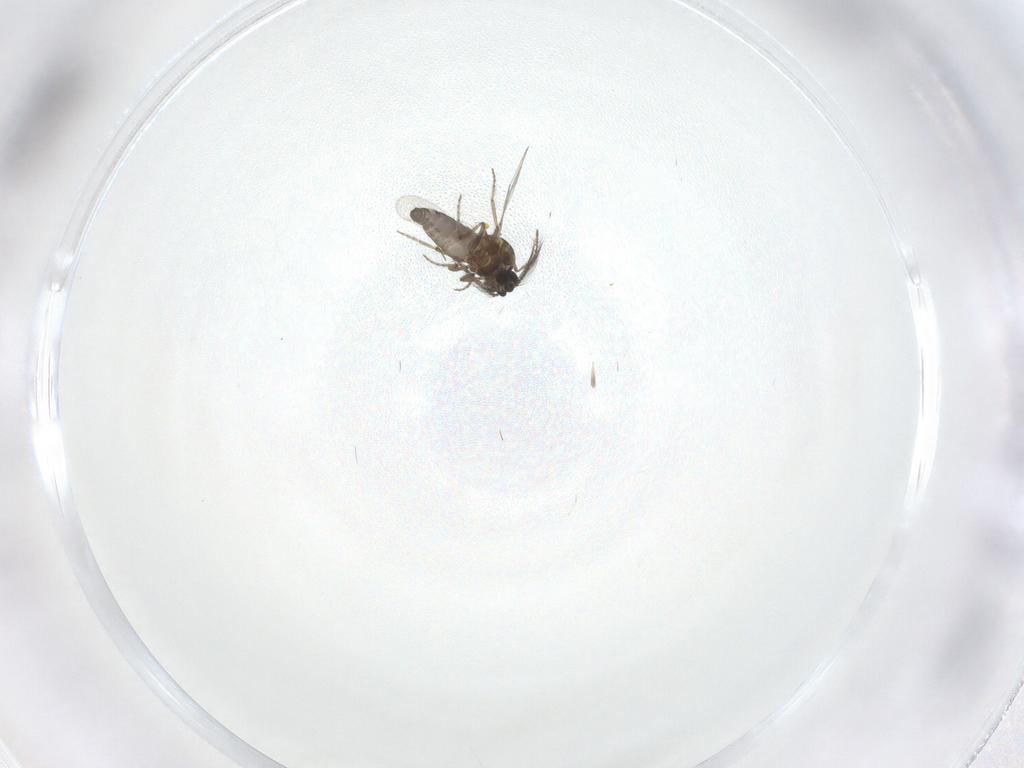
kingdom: Animalia
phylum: Arthropoda
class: Insecta
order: Diptera
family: Ceratopogonidae
